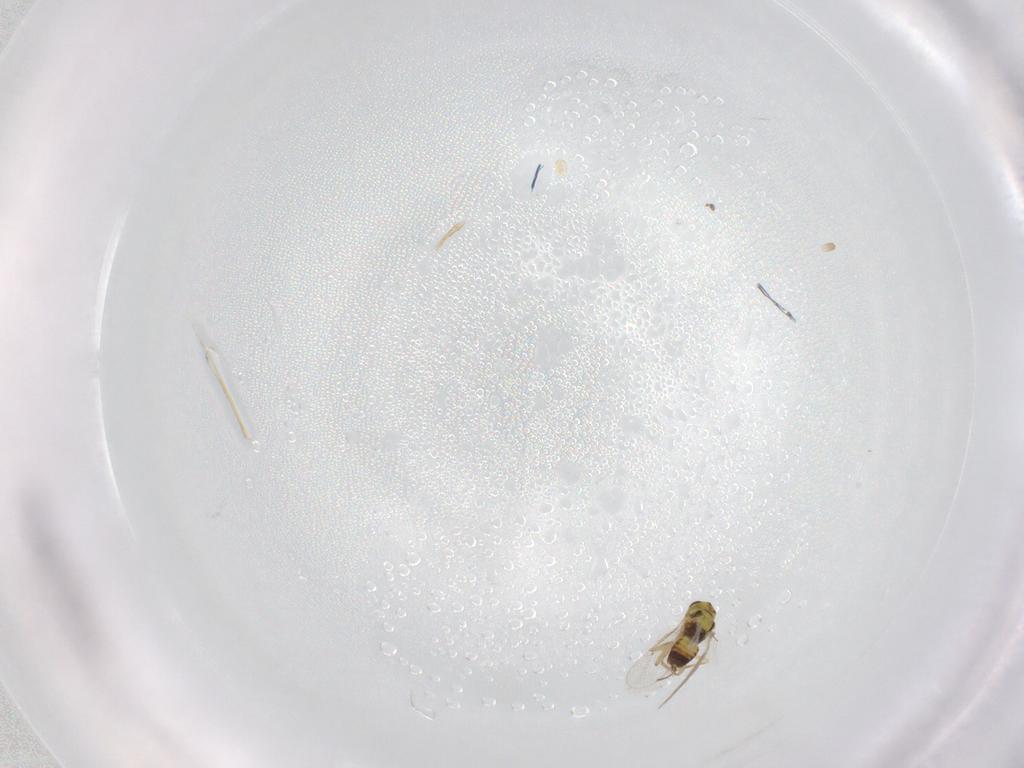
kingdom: Animalia
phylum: Arthropoda
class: Insecta
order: Hymenoptera
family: Eulophidae
